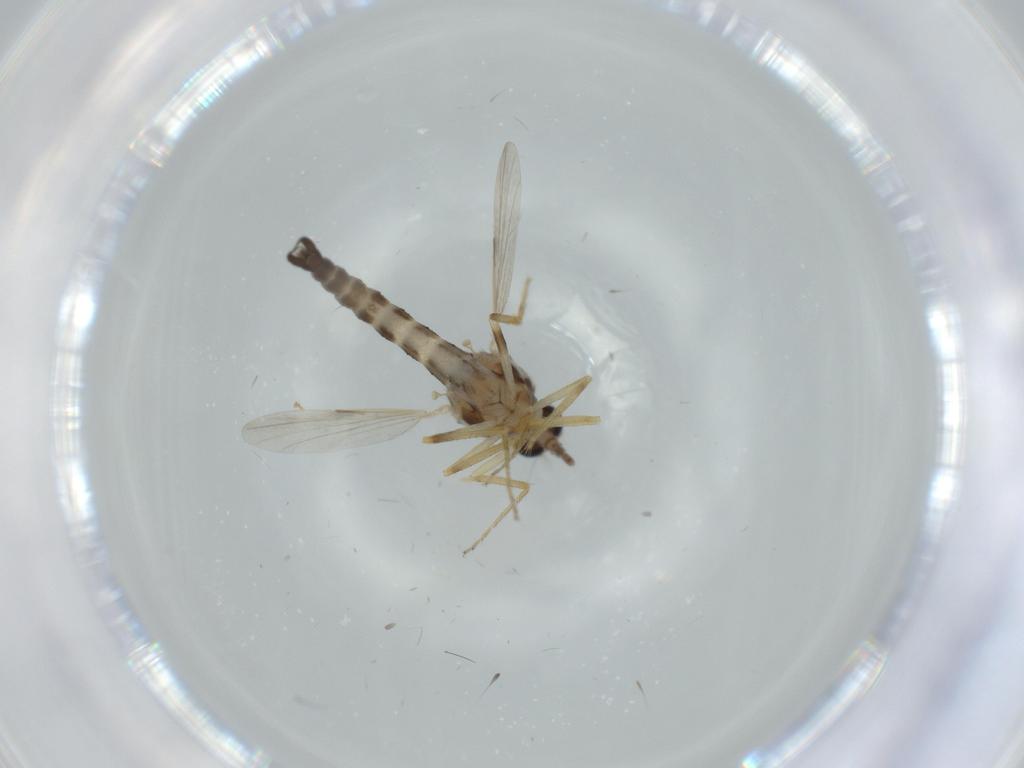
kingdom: Animalia
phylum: Arthropoda
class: Insecta
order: Diptera
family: Ceratopogonidae
